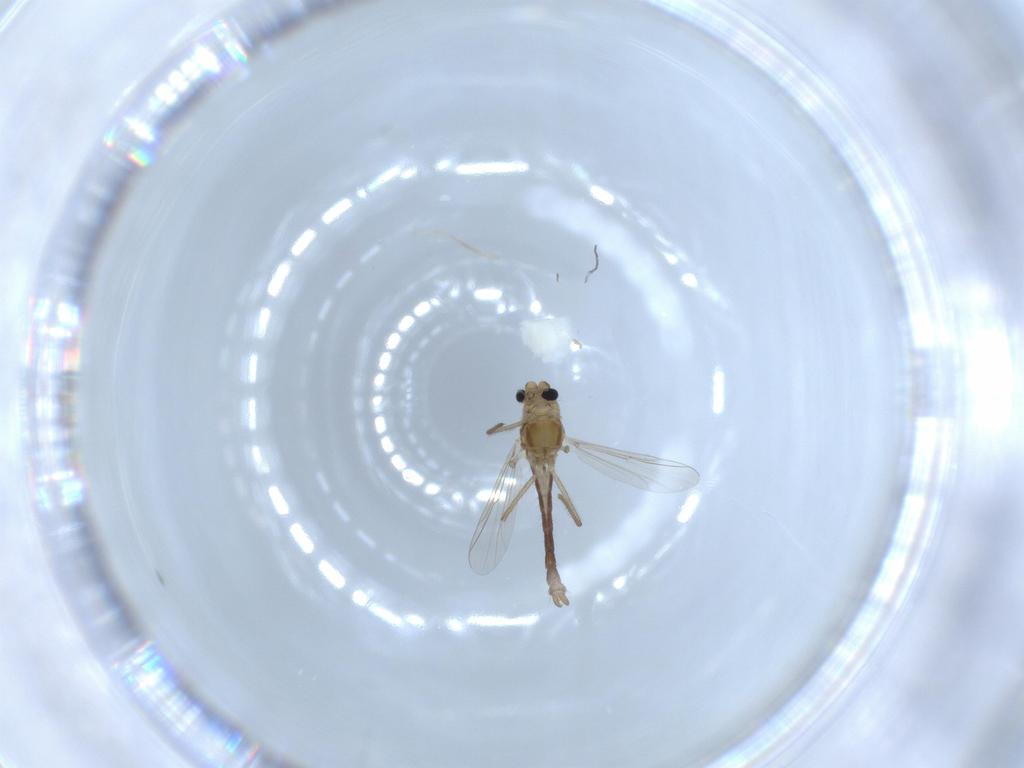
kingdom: Animalia
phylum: Arthropoda
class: Insecta
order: Diptera
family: Chironomidae
